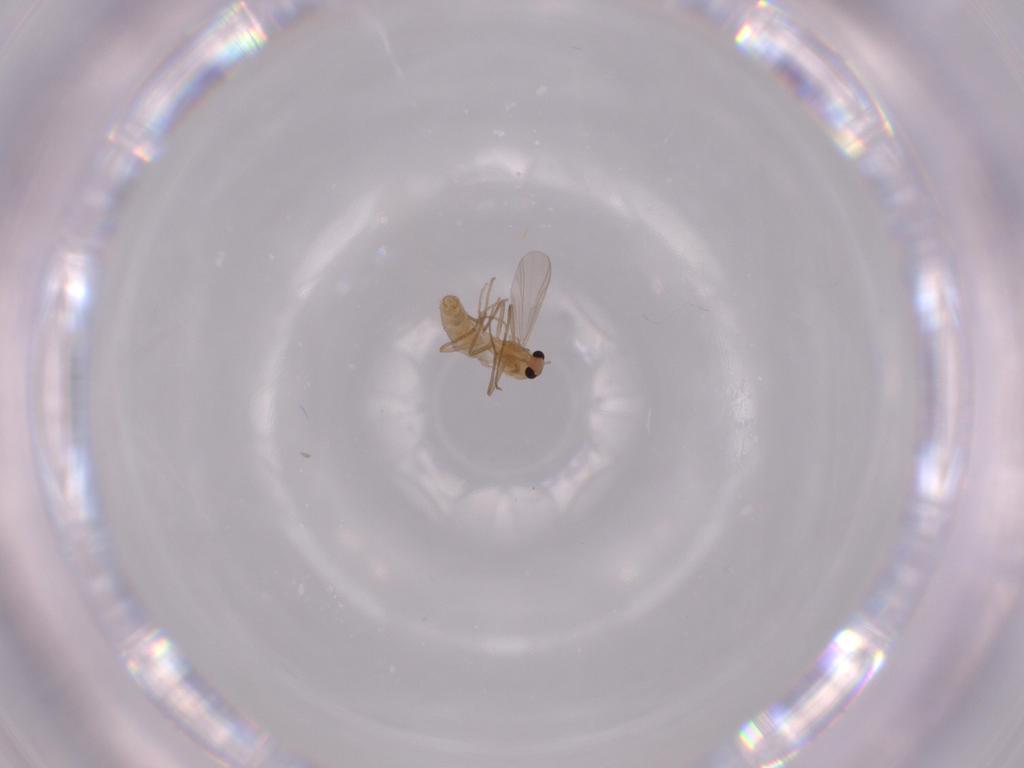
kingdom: Animalia
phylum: Arthropoda
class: Insecta
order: Diptera
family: Chironomidae
